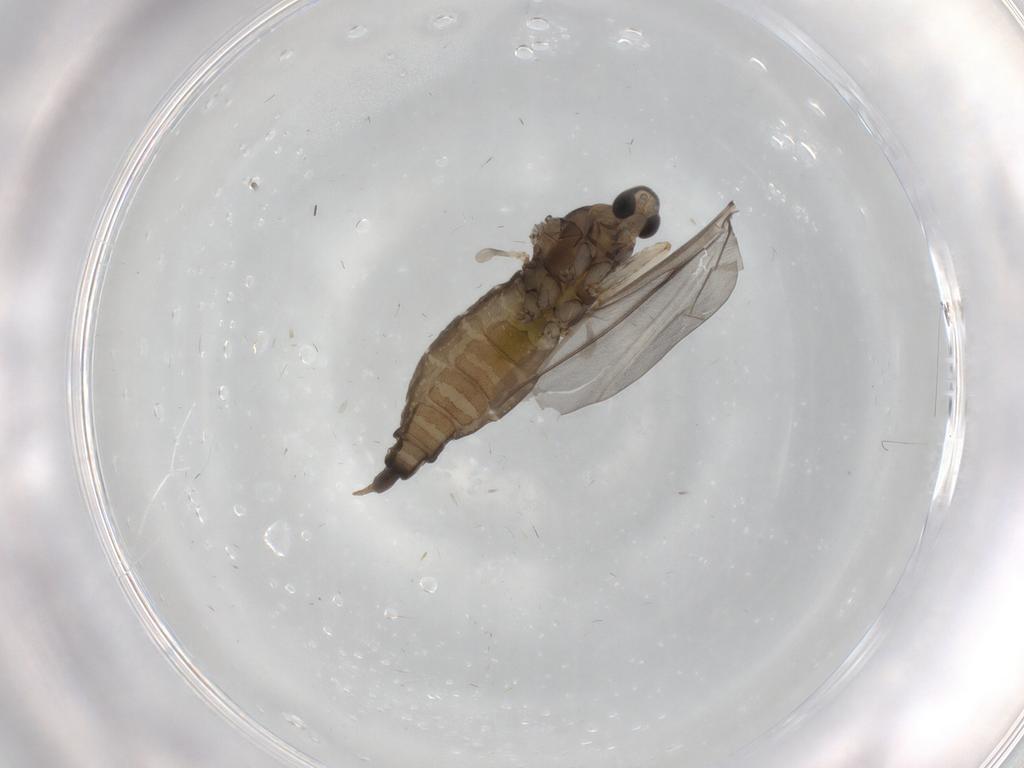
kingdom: Animalia
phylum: Arthropoda
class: Insecta
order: Diptera
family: Cecidomyiidae
